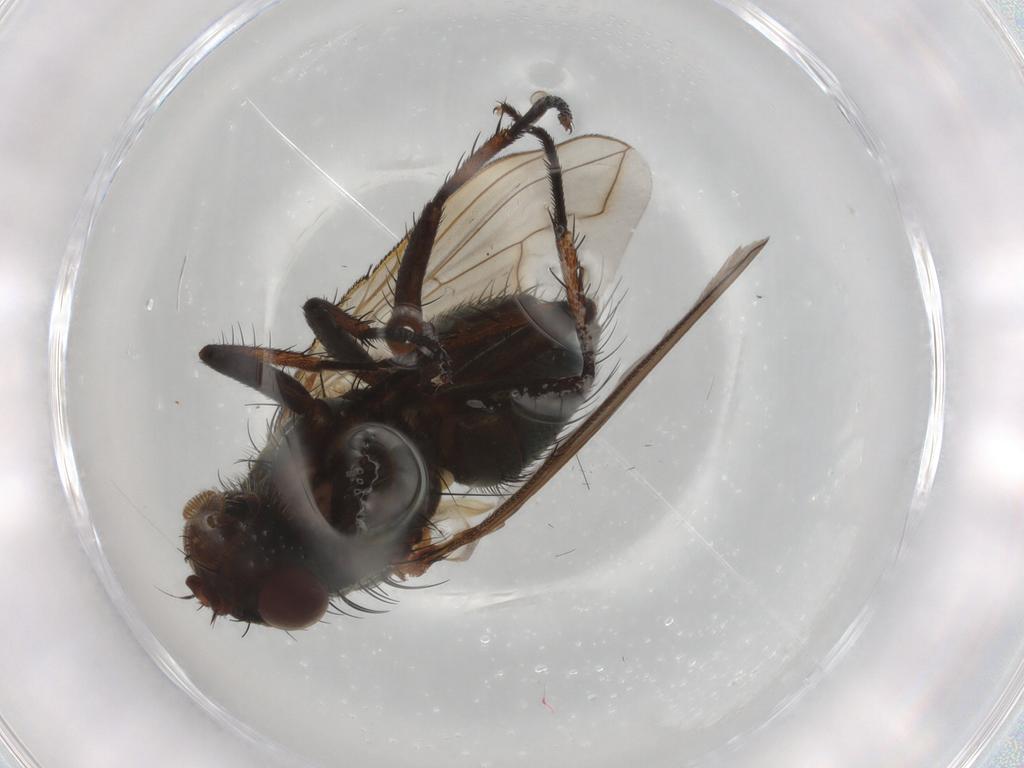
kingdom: Animalia
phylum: Arthropoda
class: Insecta
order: Diptera
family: Calliphoridae
